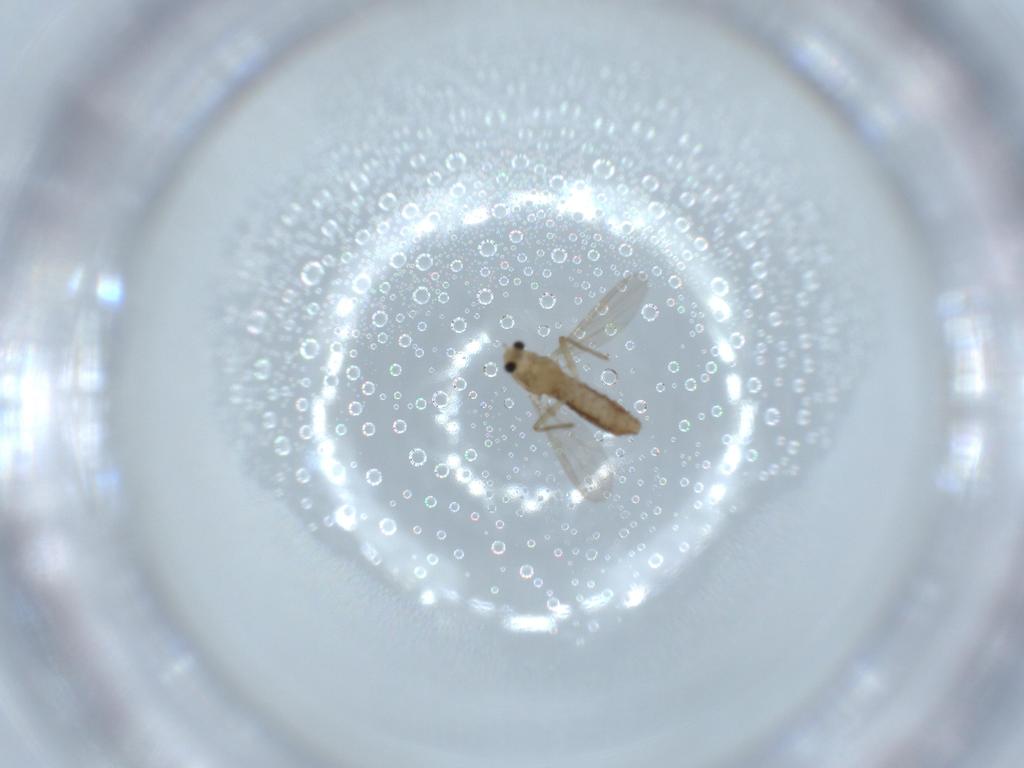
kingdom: Animalia
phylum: Arthropoda
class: Insecta
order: Diptera
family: Chironomidae
